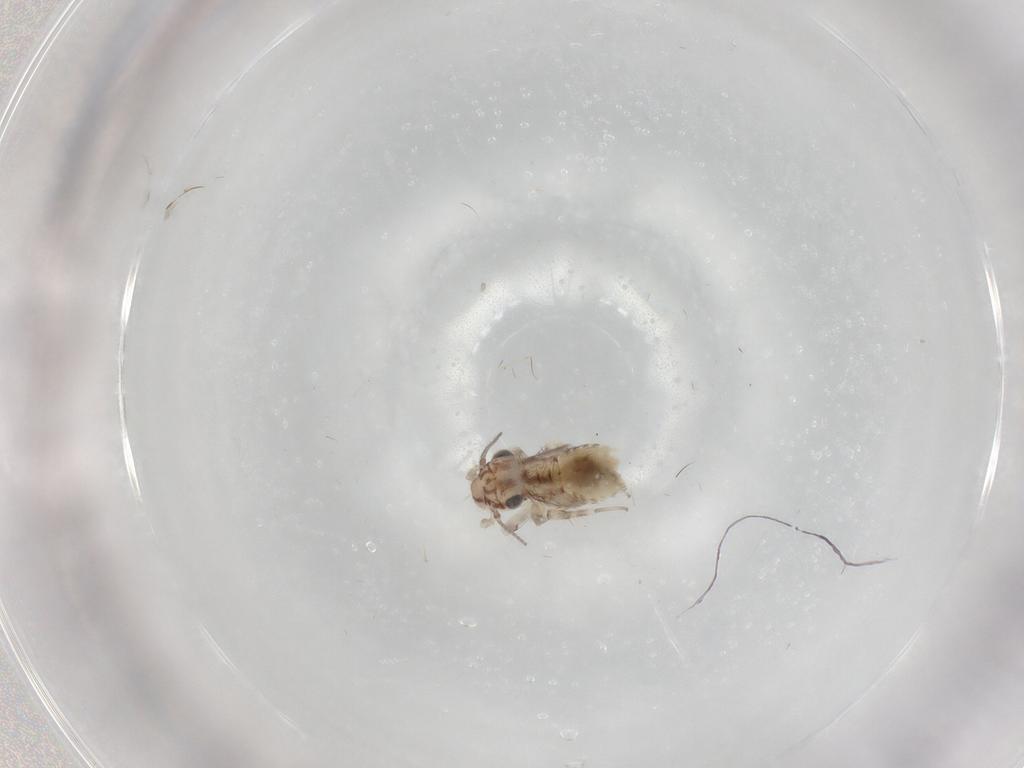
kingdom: Animalia
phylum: Arthropoda
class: Insecta
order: Psocodea
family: Lepidopsocidae
